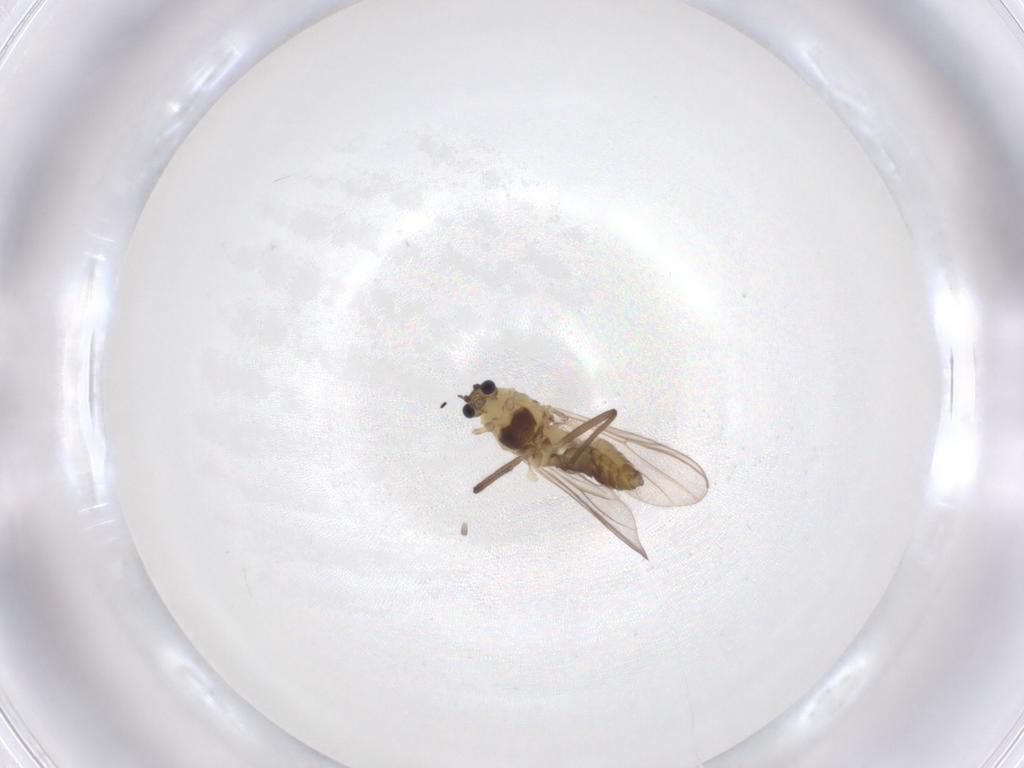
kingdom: Animalia
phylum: Arthropoda
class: Insecta
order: Diptera
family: Chironomidae
